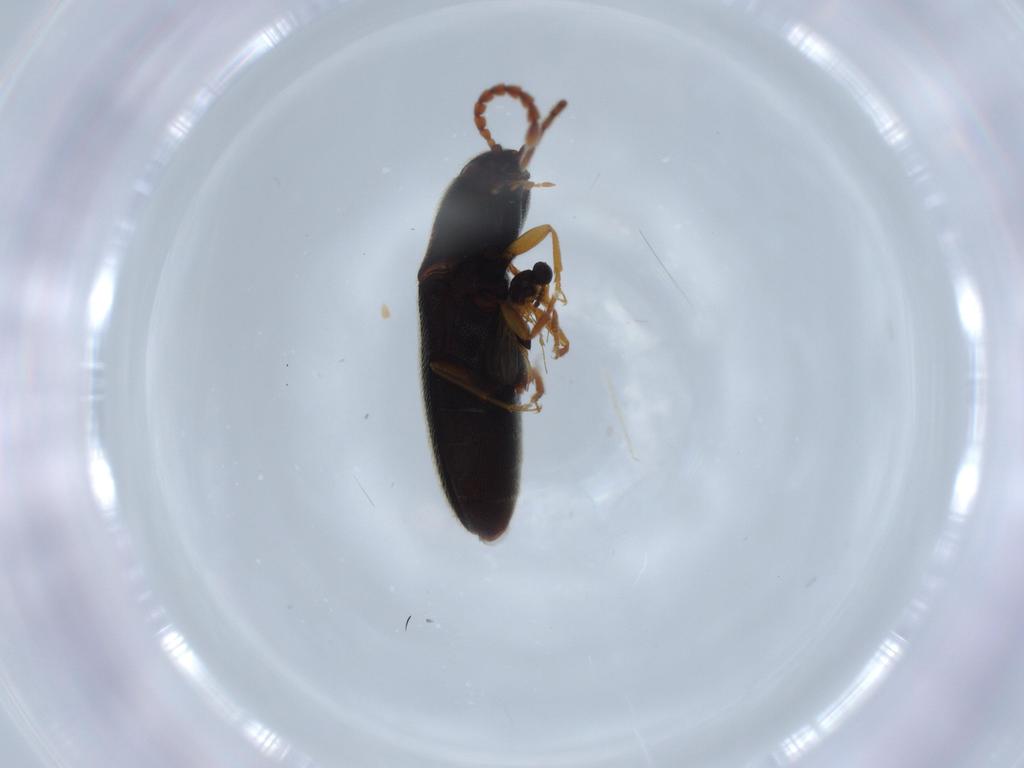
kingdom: Animalia
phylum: Arthropoda
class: Insecta
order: Coleoptera
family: Elateridae
